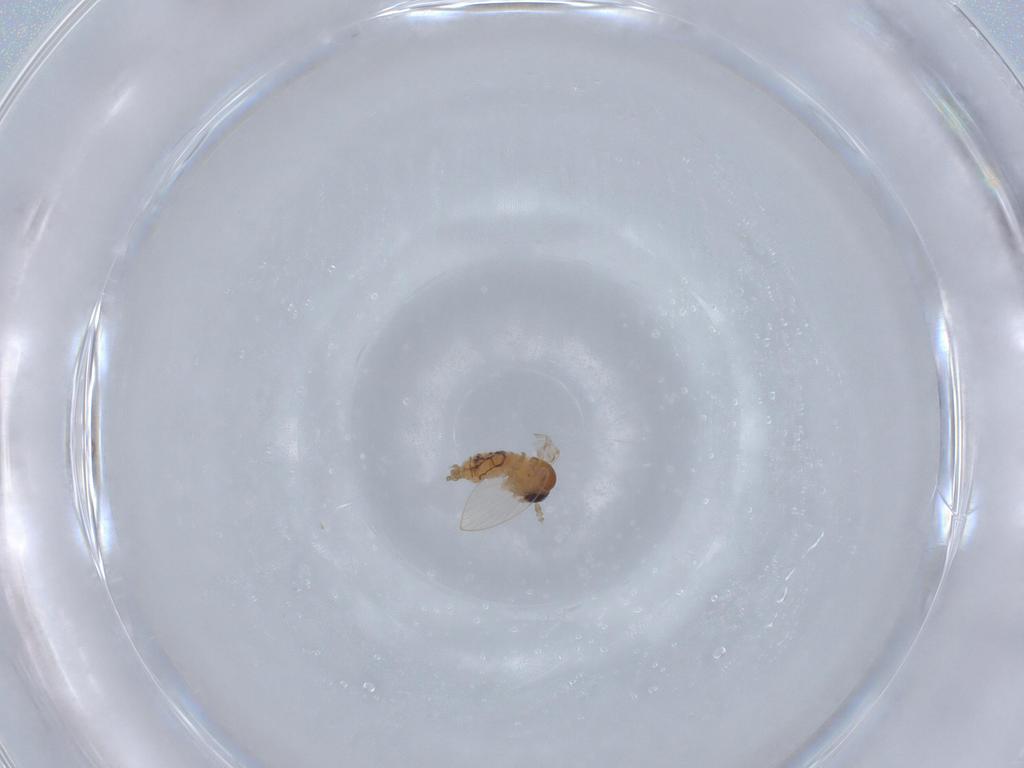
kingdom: Animalia
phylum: Arthropoda
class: Insecta
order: Diptera
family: Psychodidae
